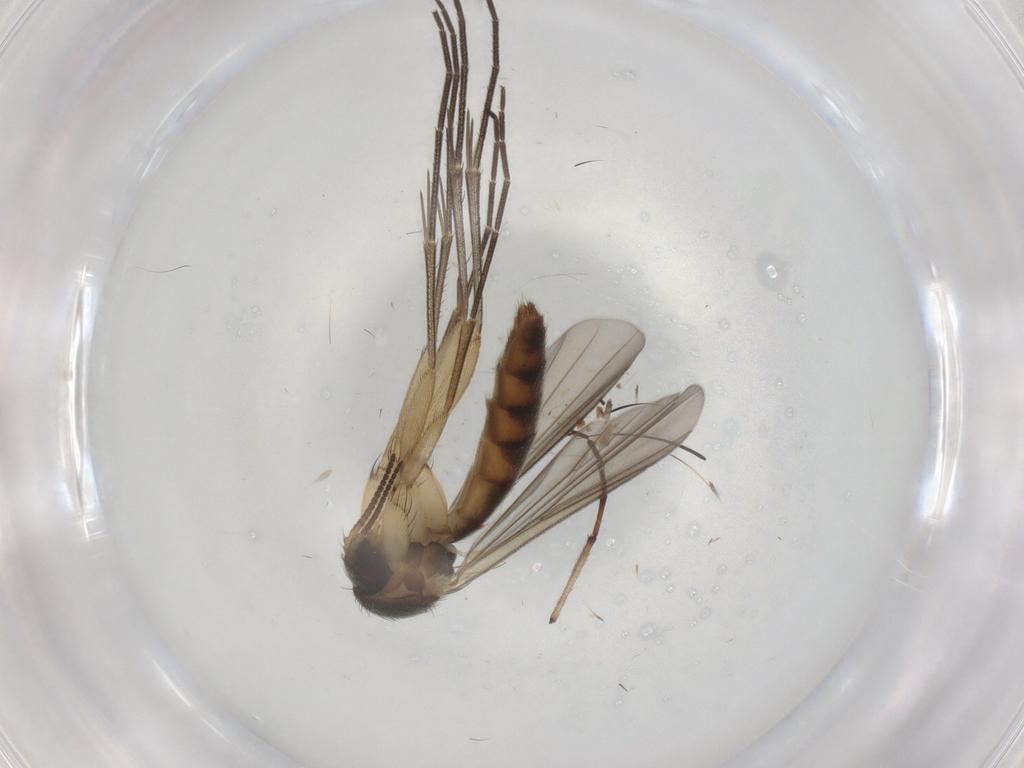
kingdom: Animalia
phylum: Arthropoda
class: Insecta
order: Diptera
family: Mycetophilidae
